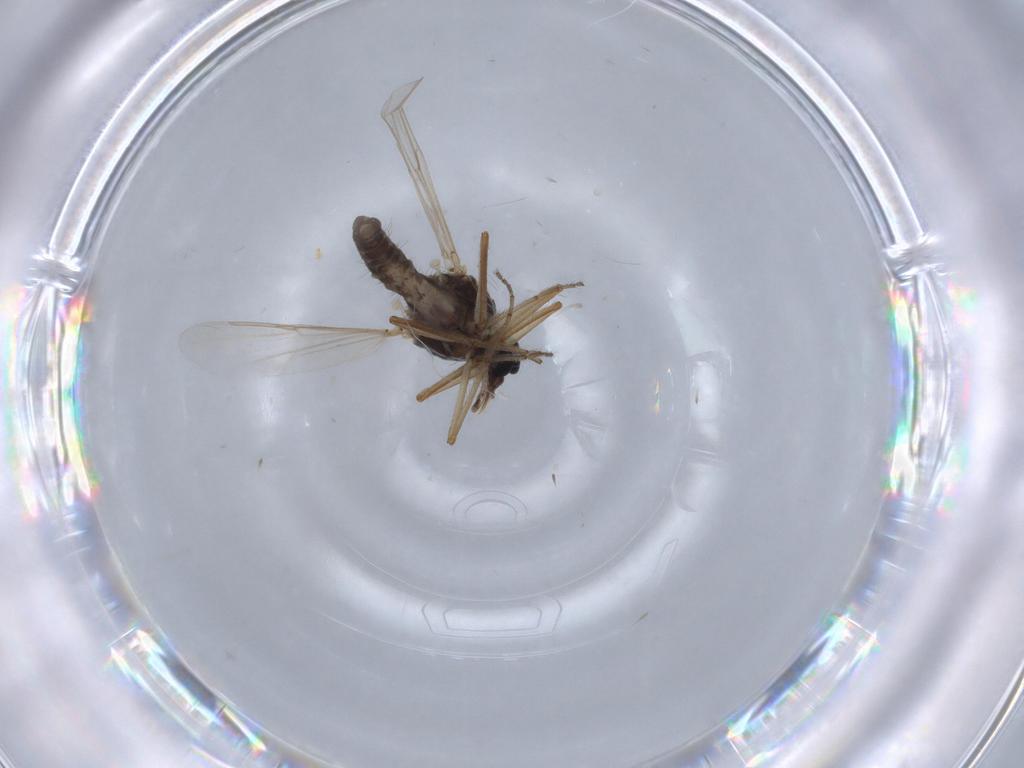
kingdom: Animalia
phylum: Arthropoda
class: Insecta
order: Diptera
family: Ceratopogonidae
